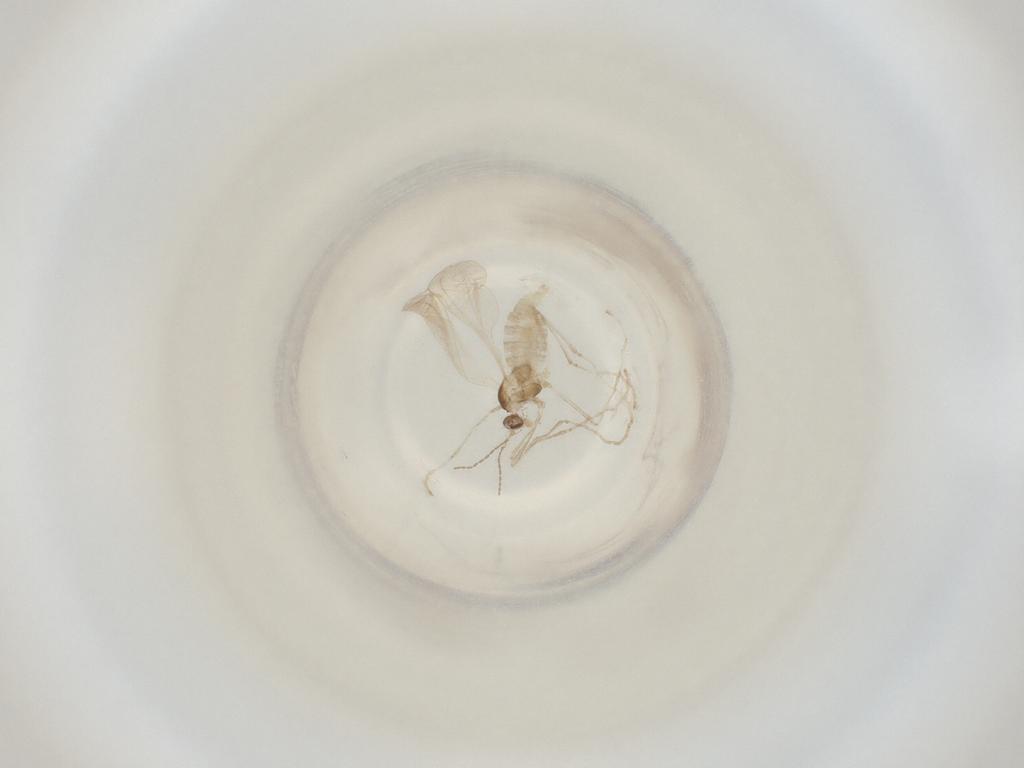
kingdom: Animalia
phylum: Arthropoda
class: Insecta
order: Diptera
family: Cecidomyiidae
